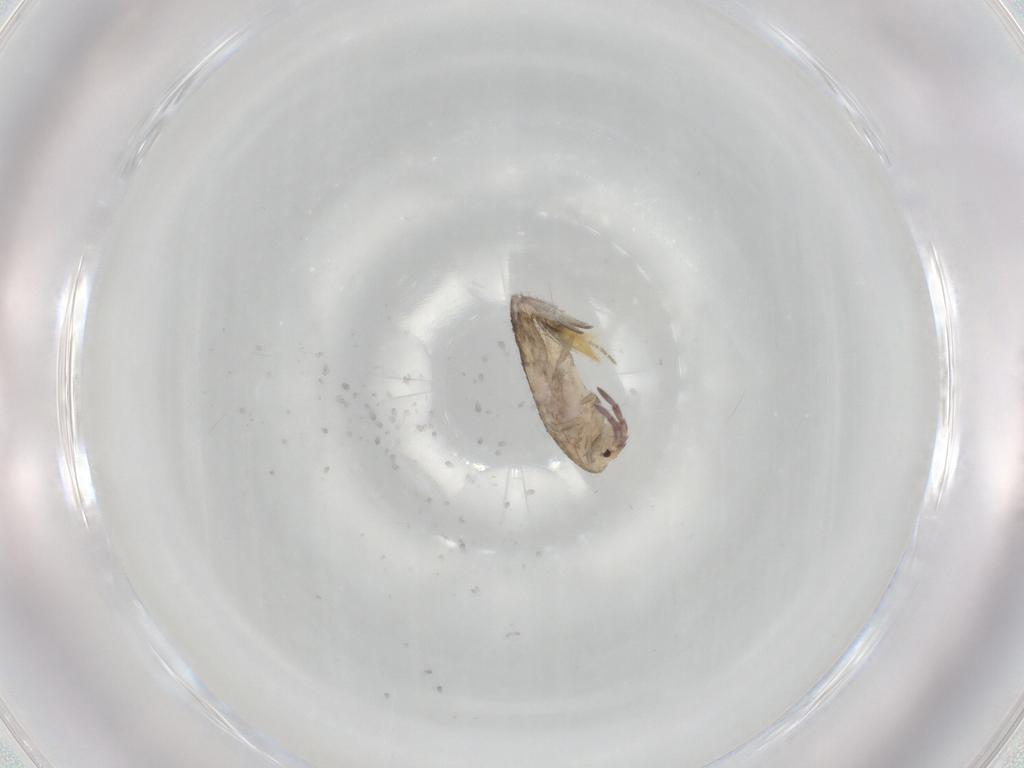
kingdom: Animalia
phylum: Arthropoda
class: Collembola
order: Entomobryomorpha
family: Entomobryidae
